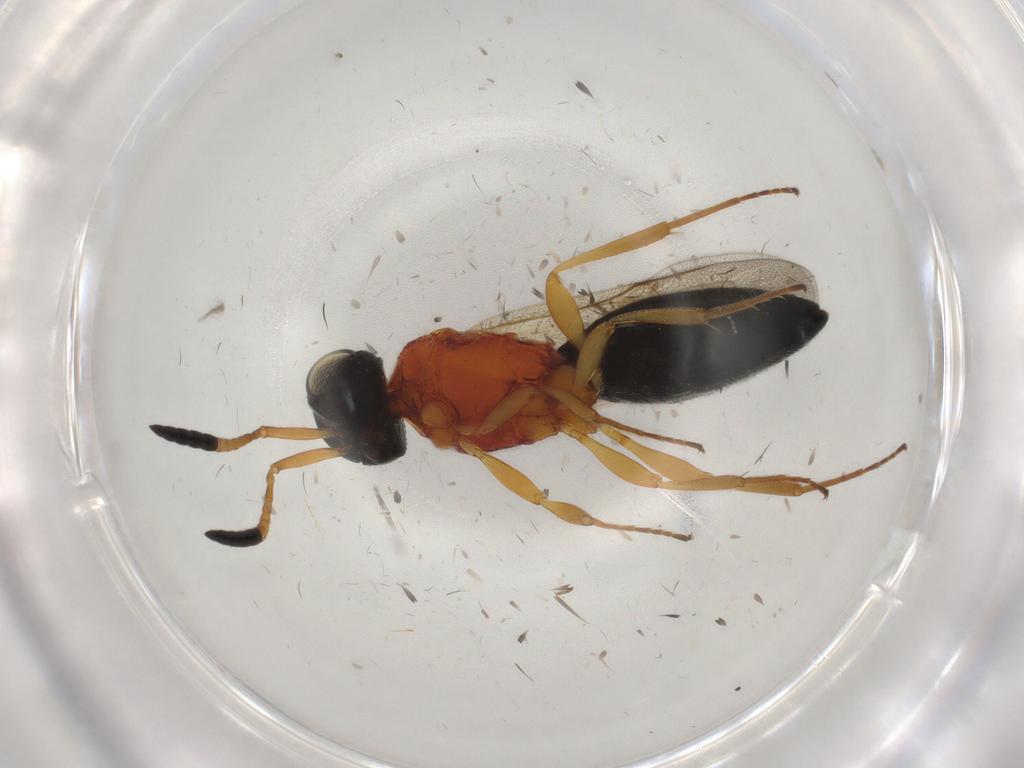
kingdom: Animalia
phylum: Arthropoda
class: Insecta
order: Hymenoptera
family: Scelionidae
